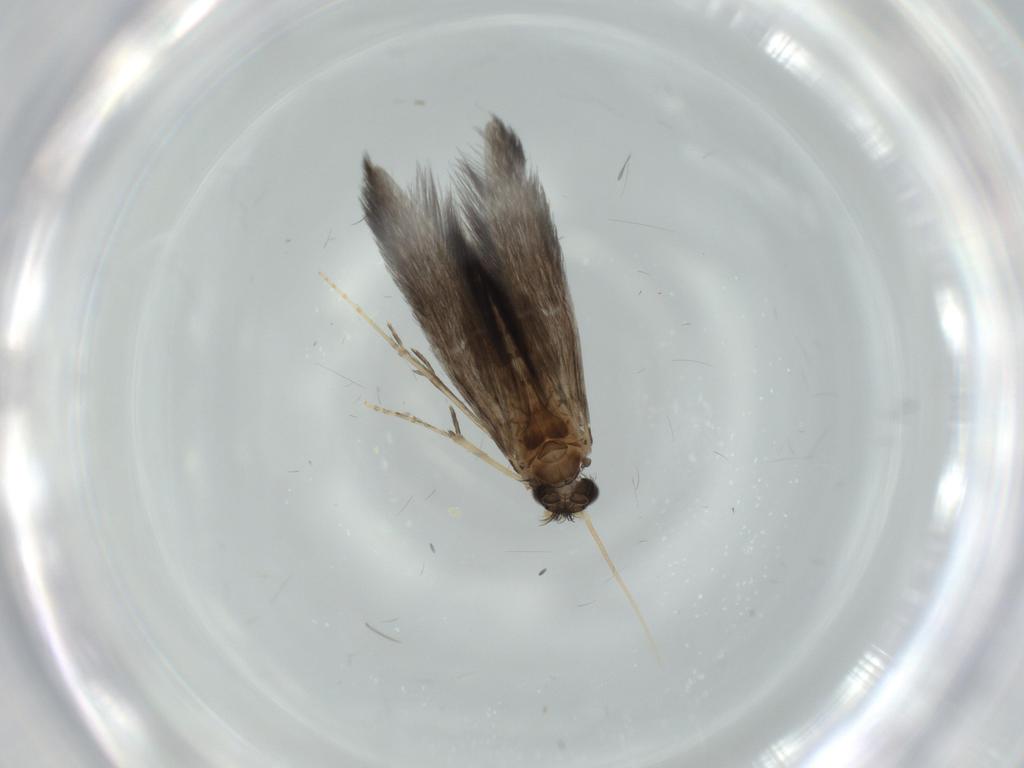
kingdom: Animalia
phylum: Arthropoda
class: Insecta
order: Trichoptera
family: Hydroptilidae
